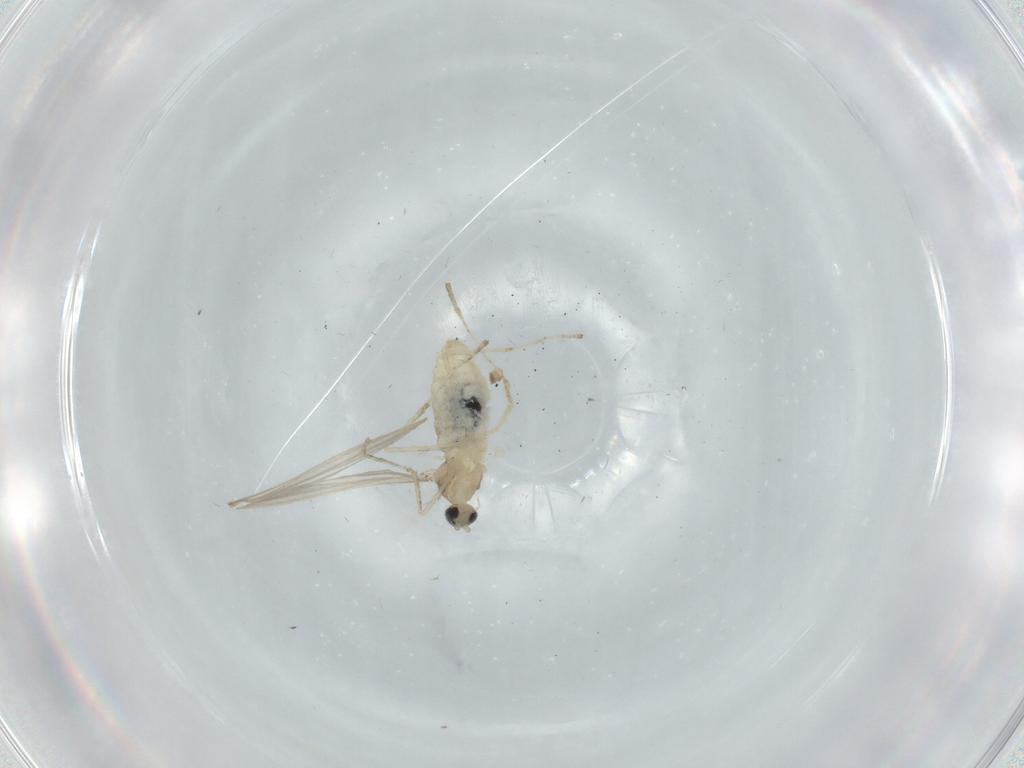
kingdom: Animalia
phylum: Arthropoda
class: Insecta
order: Diptera
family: Cecidomyiidae
